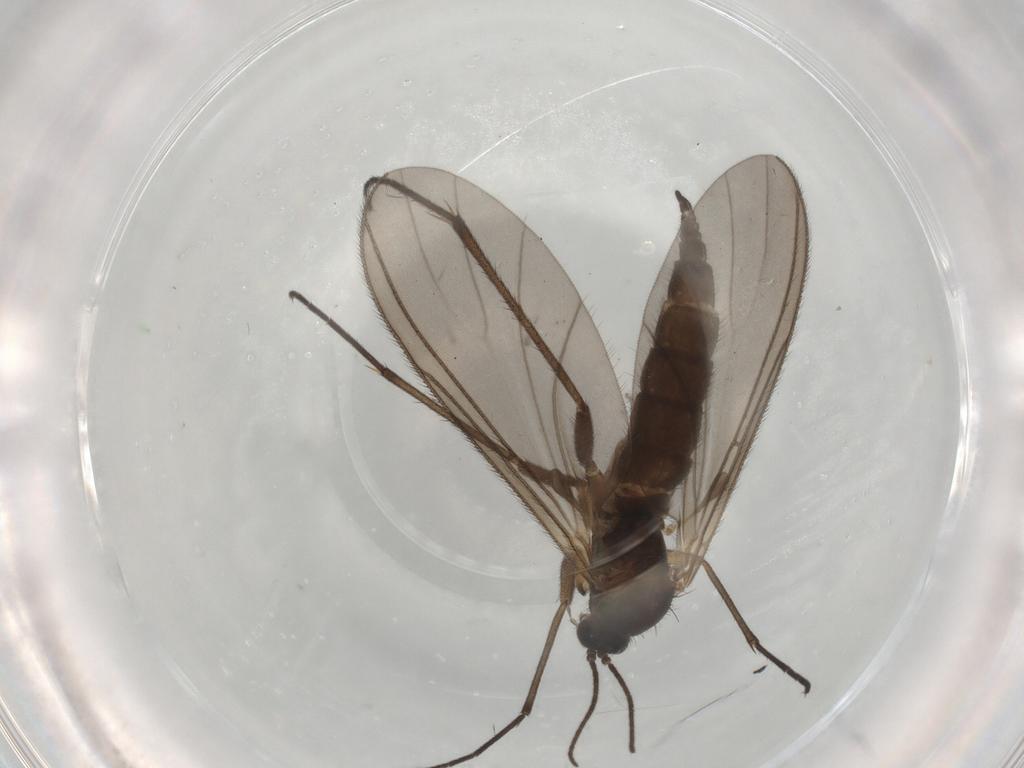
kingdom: Animalia
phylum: Arthropoda
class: Insecta
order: Diptera
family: Sciaridae
